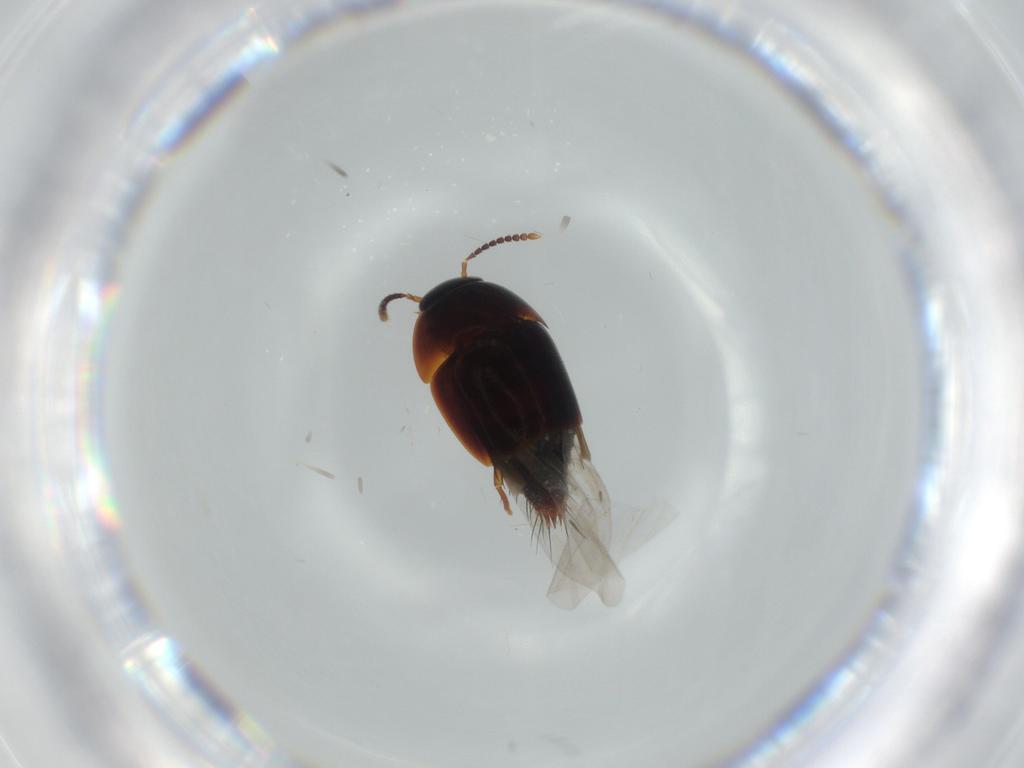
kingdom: Animalia
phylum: Arthropoda
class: Insecta
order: Coleoptera
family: Staphylinidae
